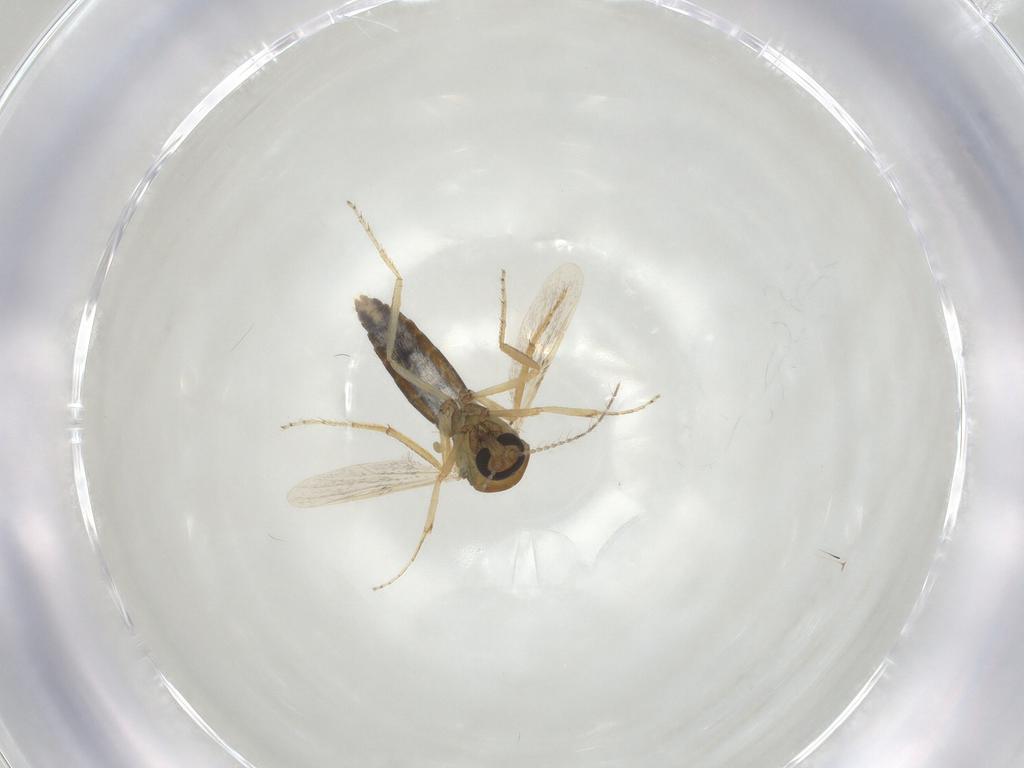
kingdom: Animalia
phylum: Arthropoda
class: Insecta
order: Diptera
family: Ceratopogonidae
